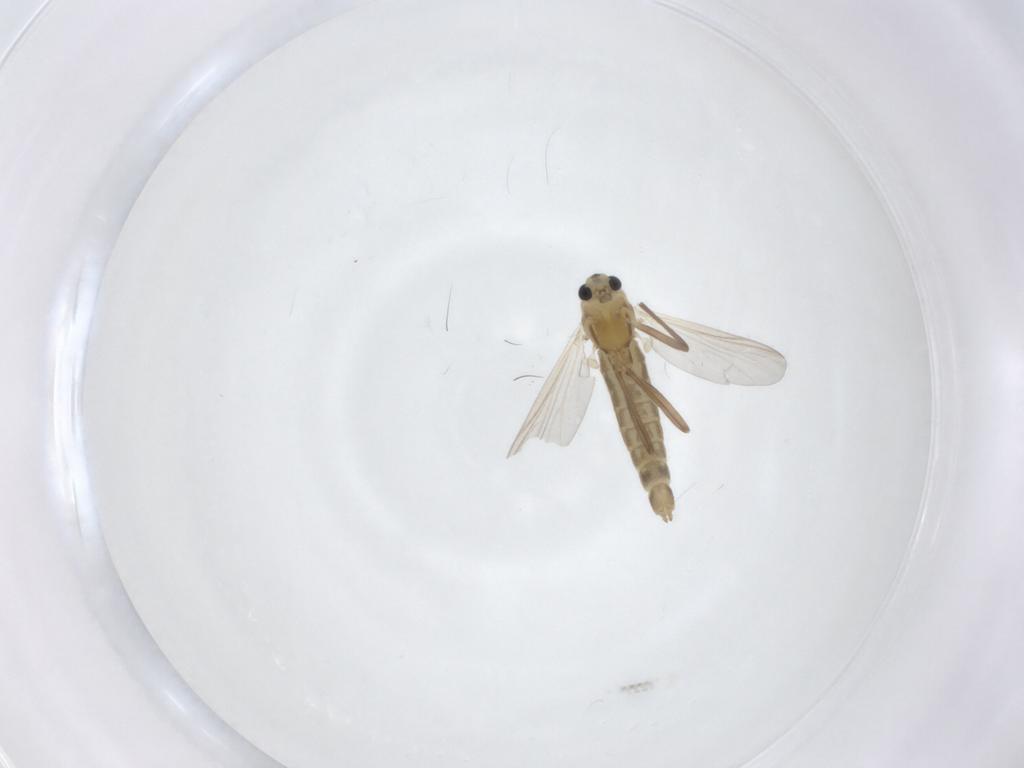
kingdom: Animalia
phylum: Arthropoda
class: Insecta
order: Diptera
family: Chironomidae
